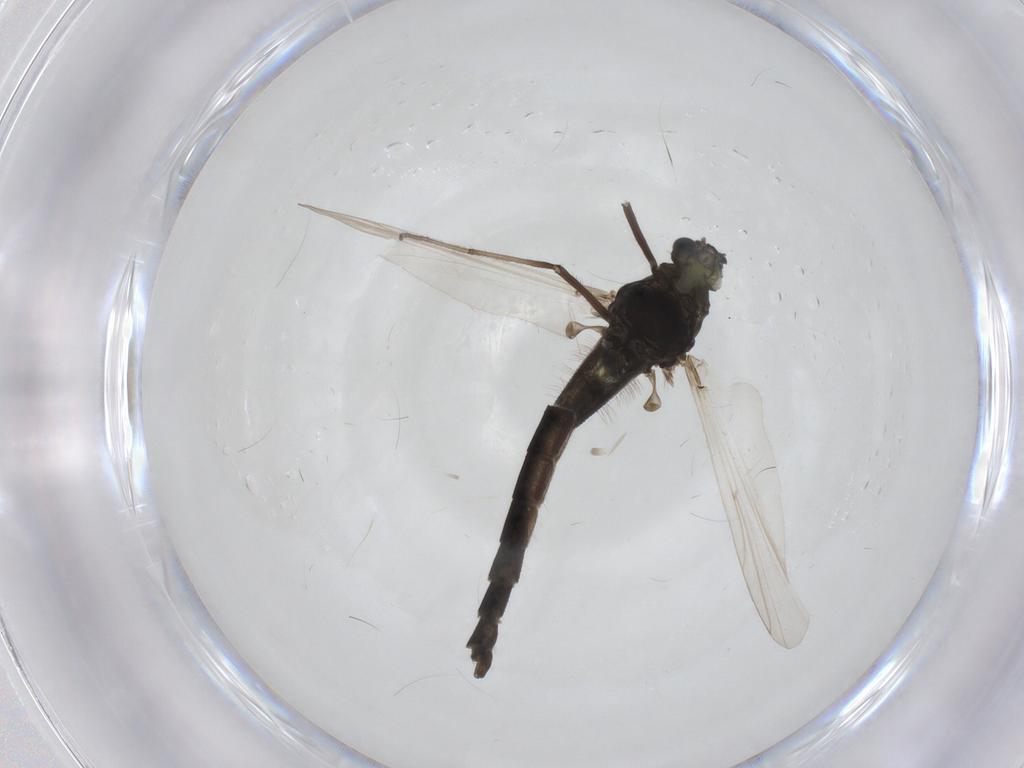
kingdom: Animalia
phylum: Arthropoda
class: Insecta
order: Diptera
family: Chironomidae
